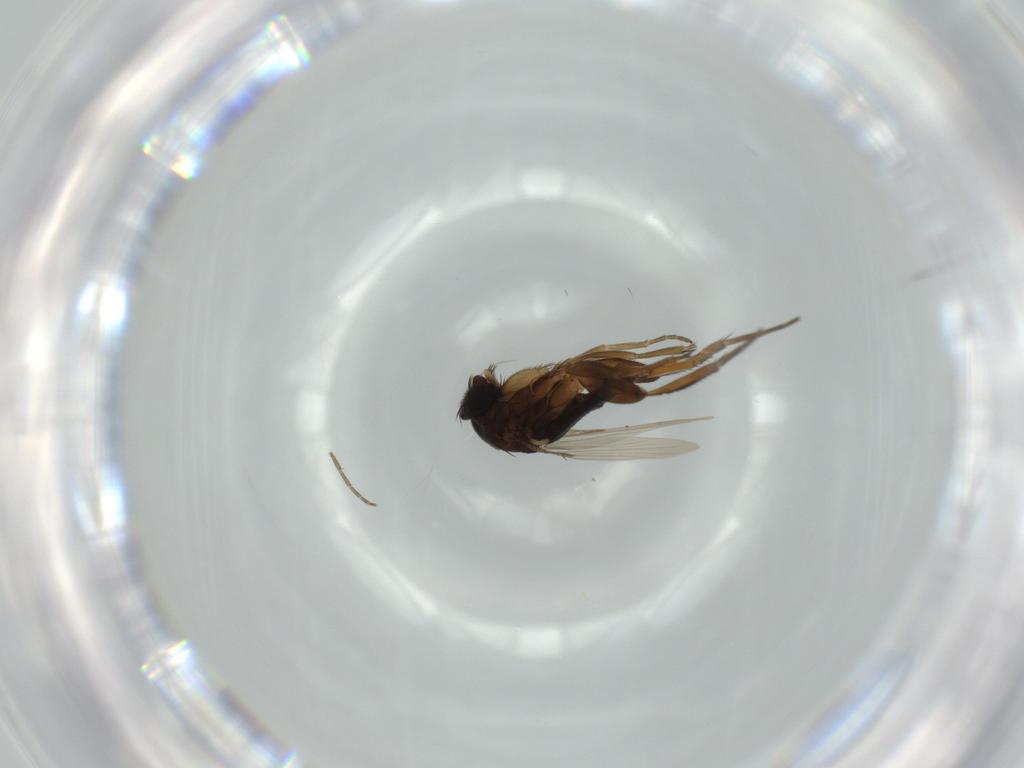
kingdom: Animalia
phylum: Arthropoda
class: Insecta
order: Diptera
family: Phoridae
